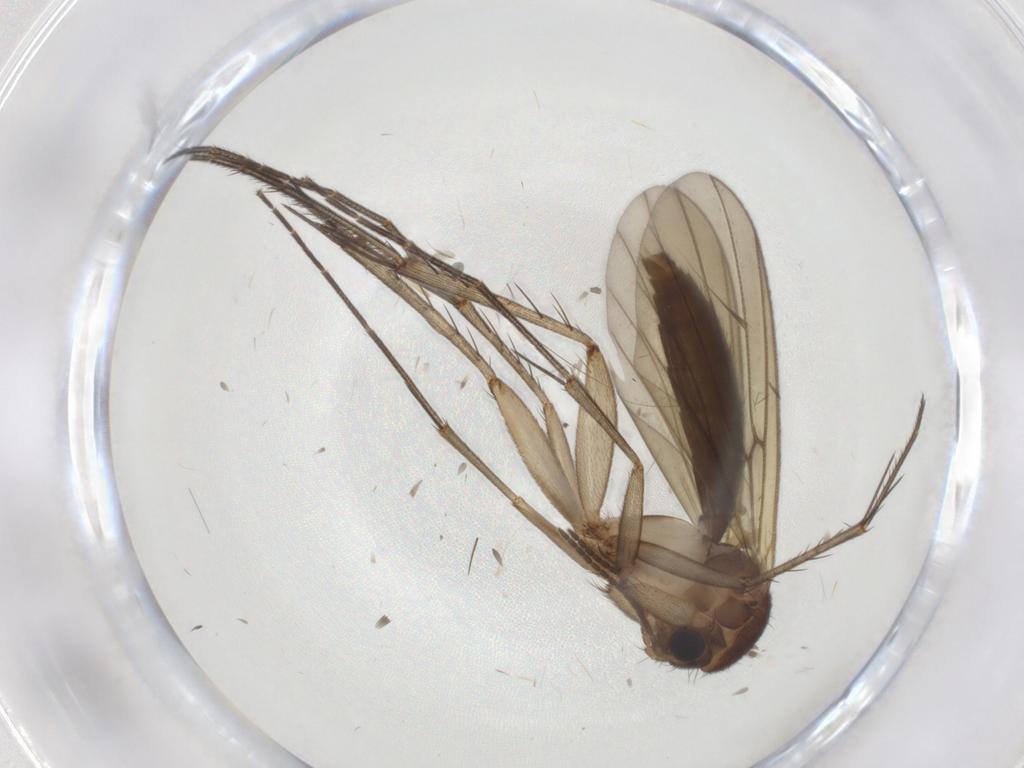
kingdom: Animalia
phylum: Arthropoda
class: Insecta
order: Diptera
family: Mycetophilidae
